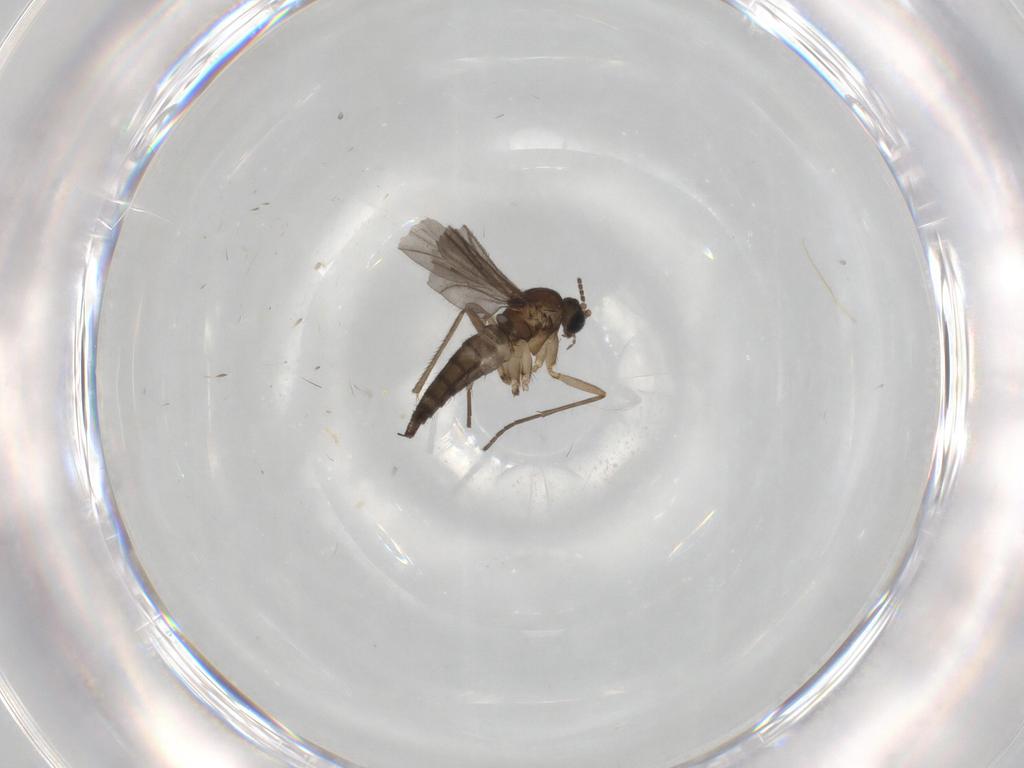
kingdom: Animalia
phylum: Arthropoda
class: Insecta
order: Diptera
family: Sciaridae
